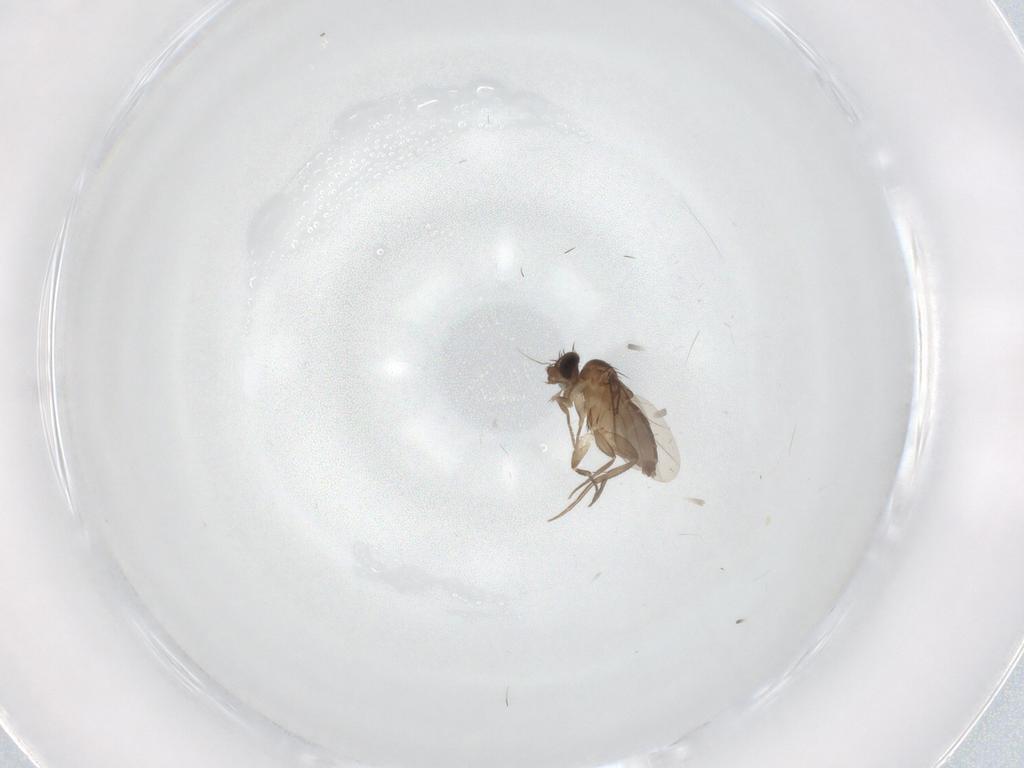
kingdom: Animalia
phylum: Arthropoda
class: Insecta
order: Diptera
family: Phoridae
